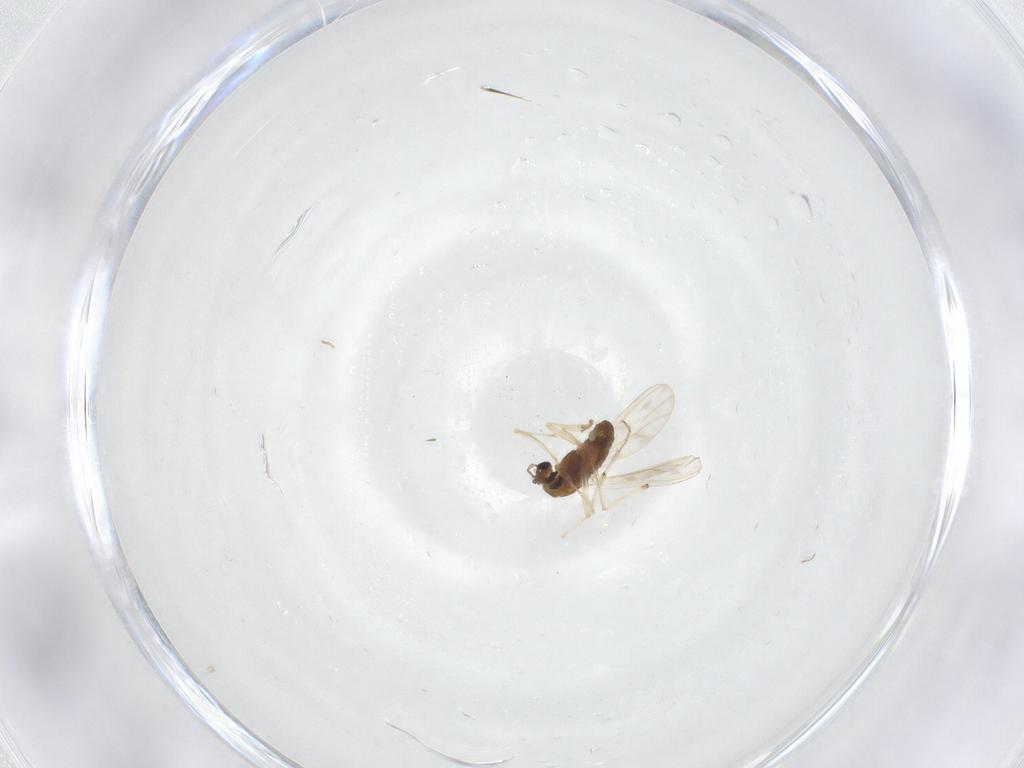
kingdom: Animalia
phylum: Arthropoda
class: Insecta
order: Diptera
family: Chironomidae
